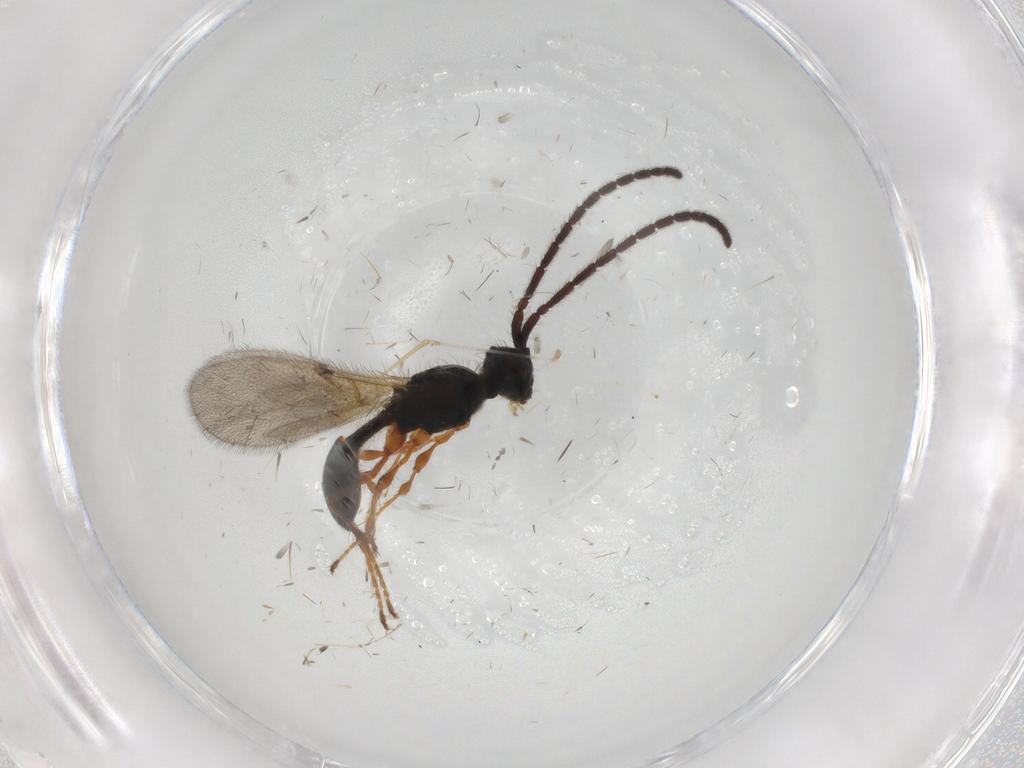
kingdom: Animalia
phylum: Arthropoda
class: Insecta
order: Hymenoptera
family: Diapriidae
